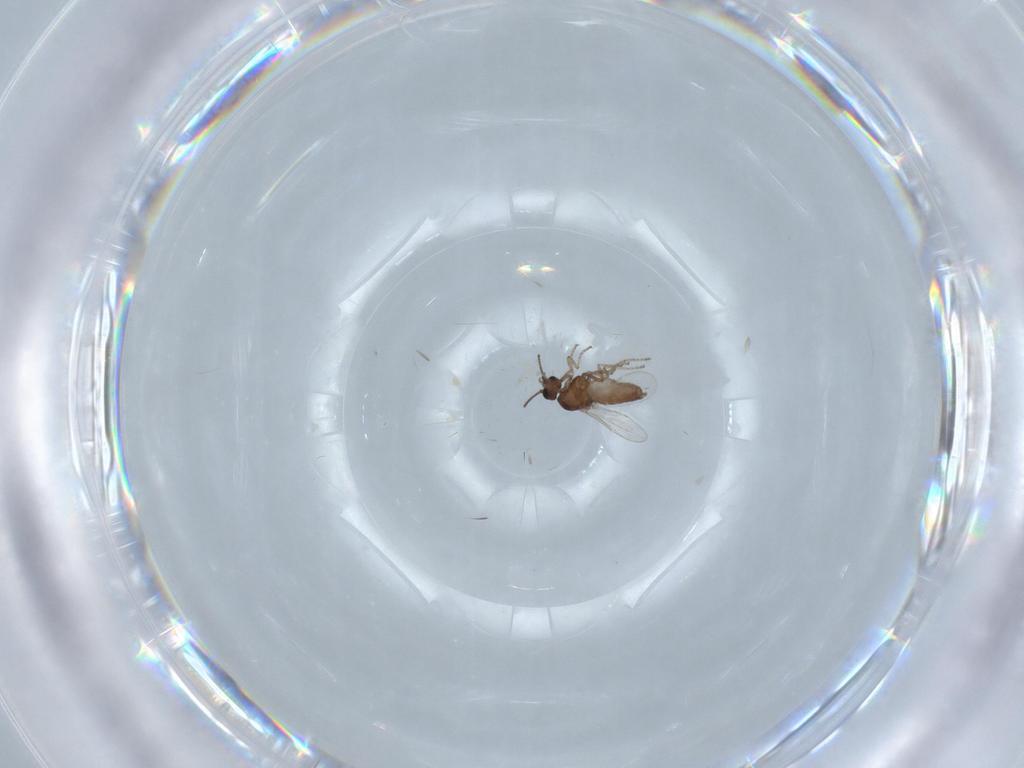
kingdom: Animalia
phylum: Arthropoda
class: Insecta
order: Diptera
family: Ceratopogonidae
